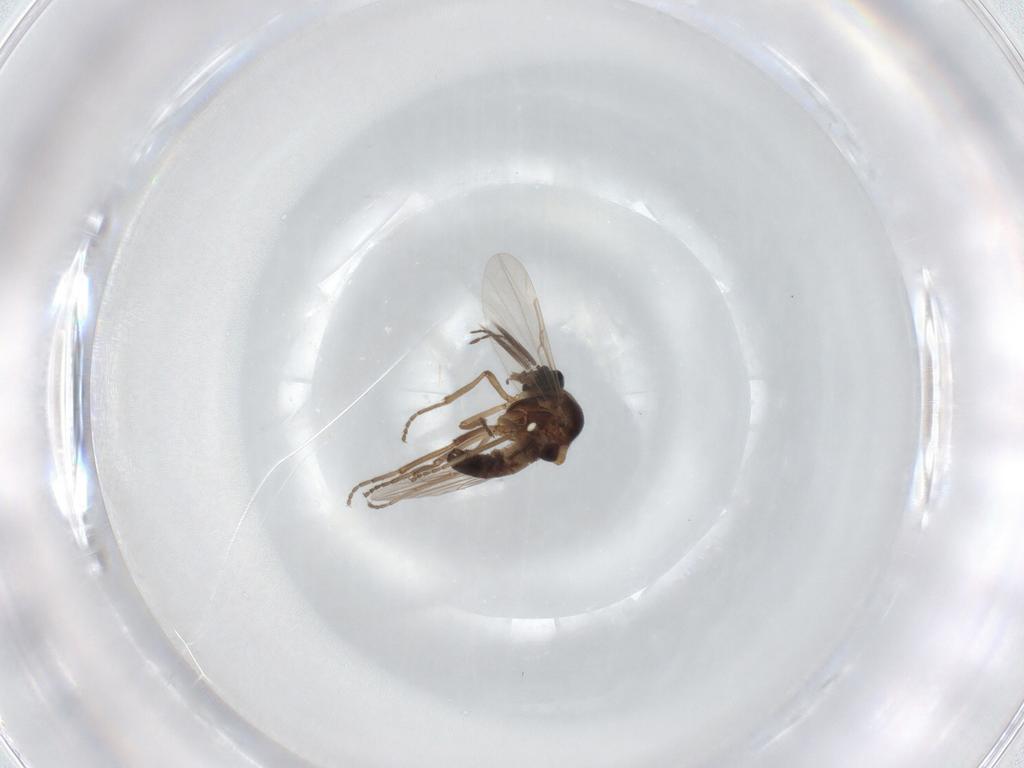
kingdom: Animalia
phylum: Arthropoda
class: Insecta
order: Diptera
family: Ceratopogonidae
